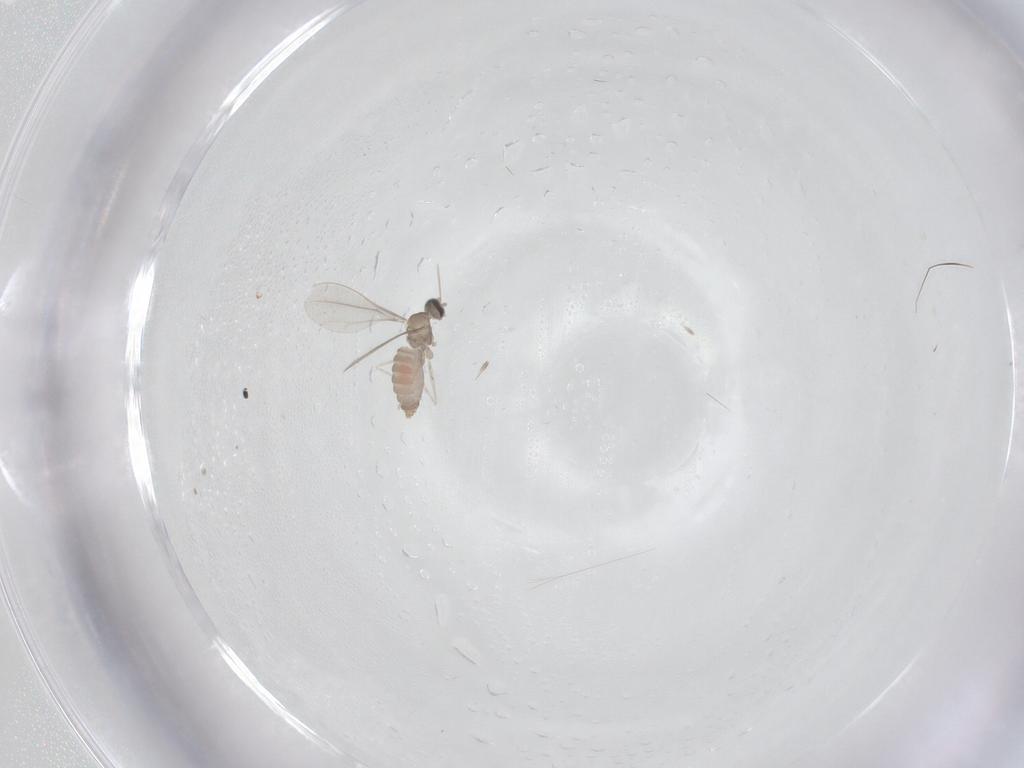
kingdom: Animalia
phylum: Arthropoda
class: Insecta
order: Diptera
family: Cecidomyiidae
